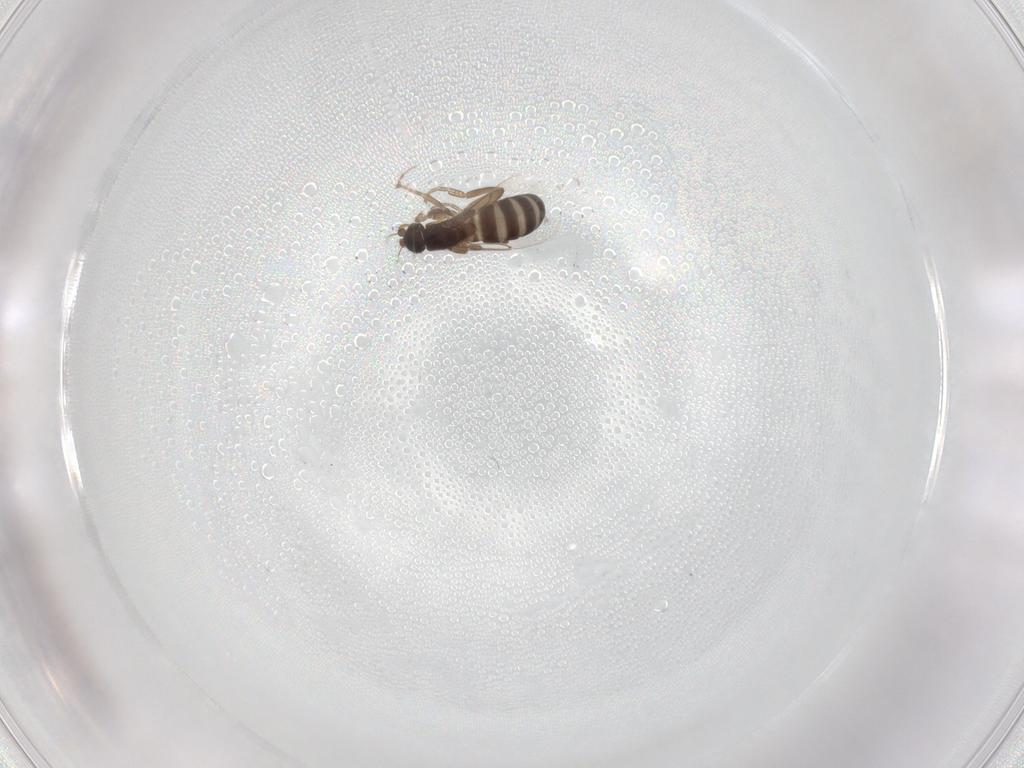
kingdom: Animalia
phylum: Arthropoda
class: Insecta
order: Diptera
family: Phoridae
